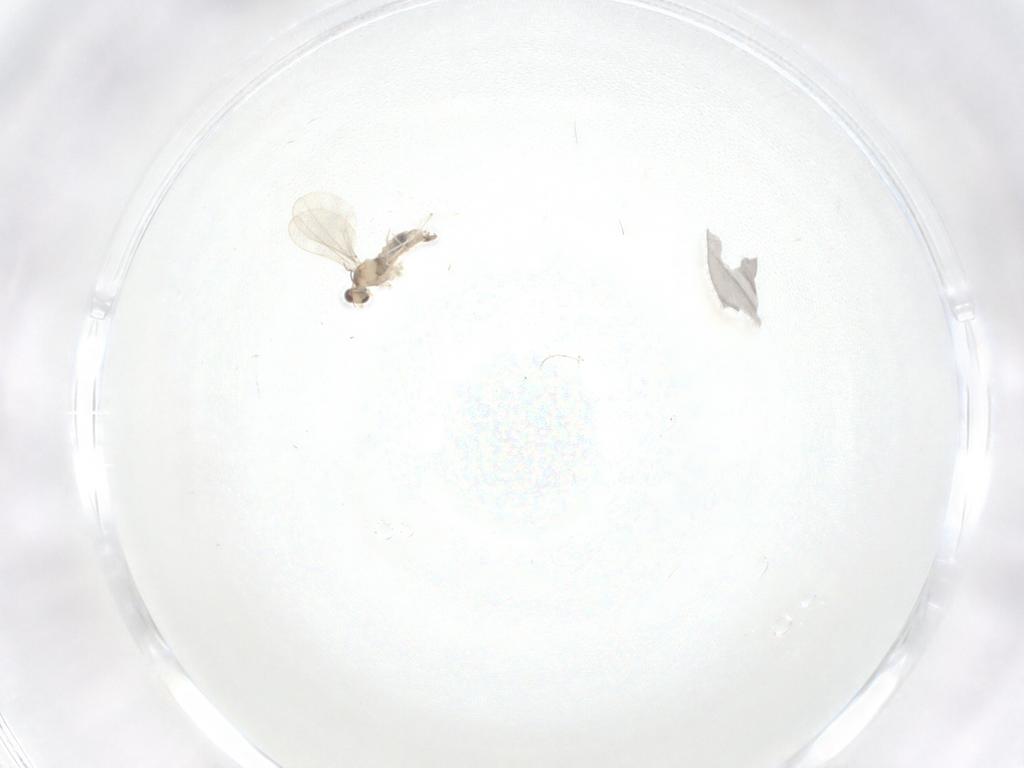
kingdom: Animalia
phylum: Arthropoda
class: Insecta
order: Diptera
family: Cecidomyiidae
